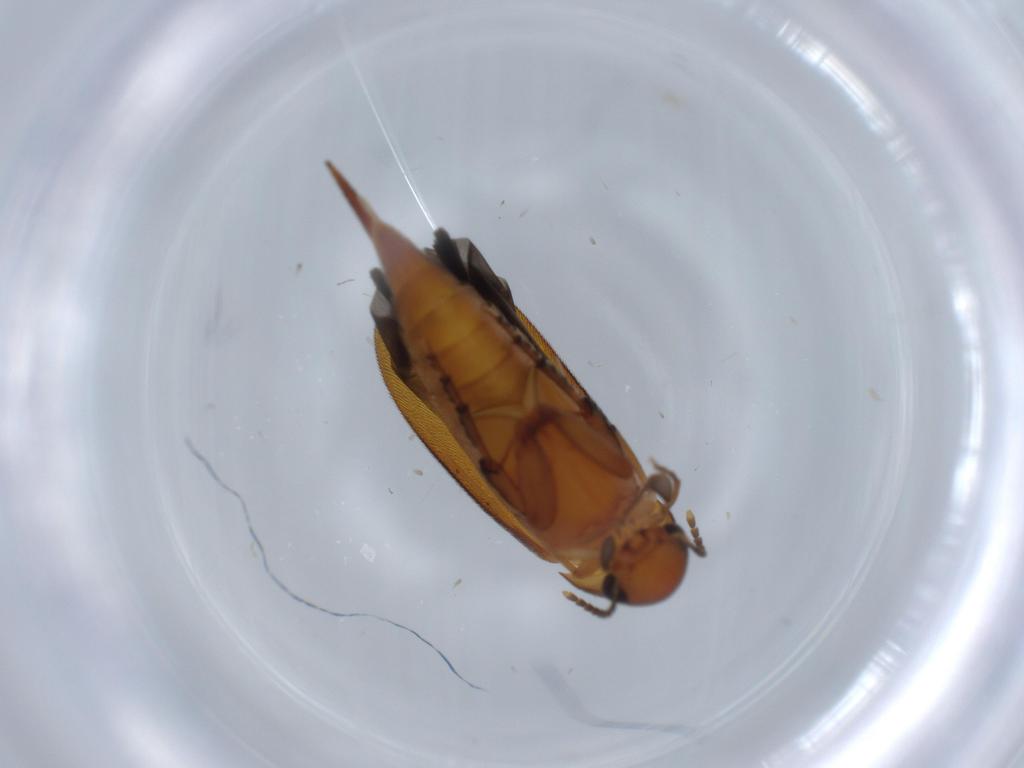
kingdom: Animalia
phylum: Arthropoda
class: Insecta
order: Coleoptera
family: Mordellidae
